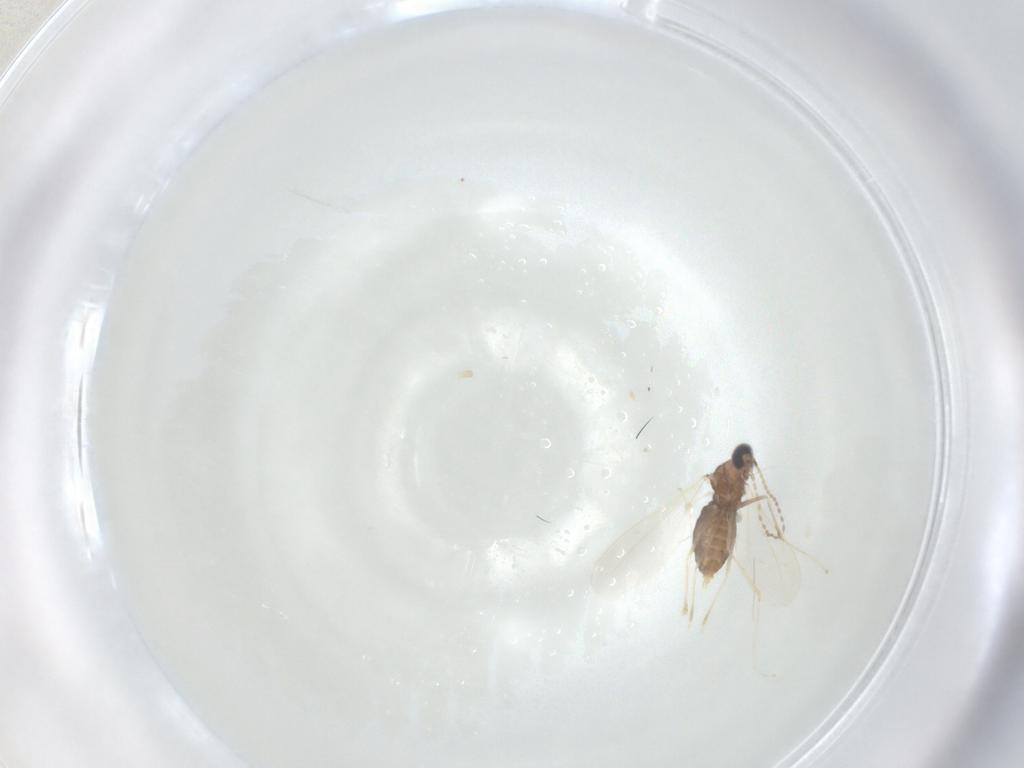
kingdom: Animalia
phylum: Arthropoda
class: Insecta
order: Diptera
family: Cecidomyiidae
